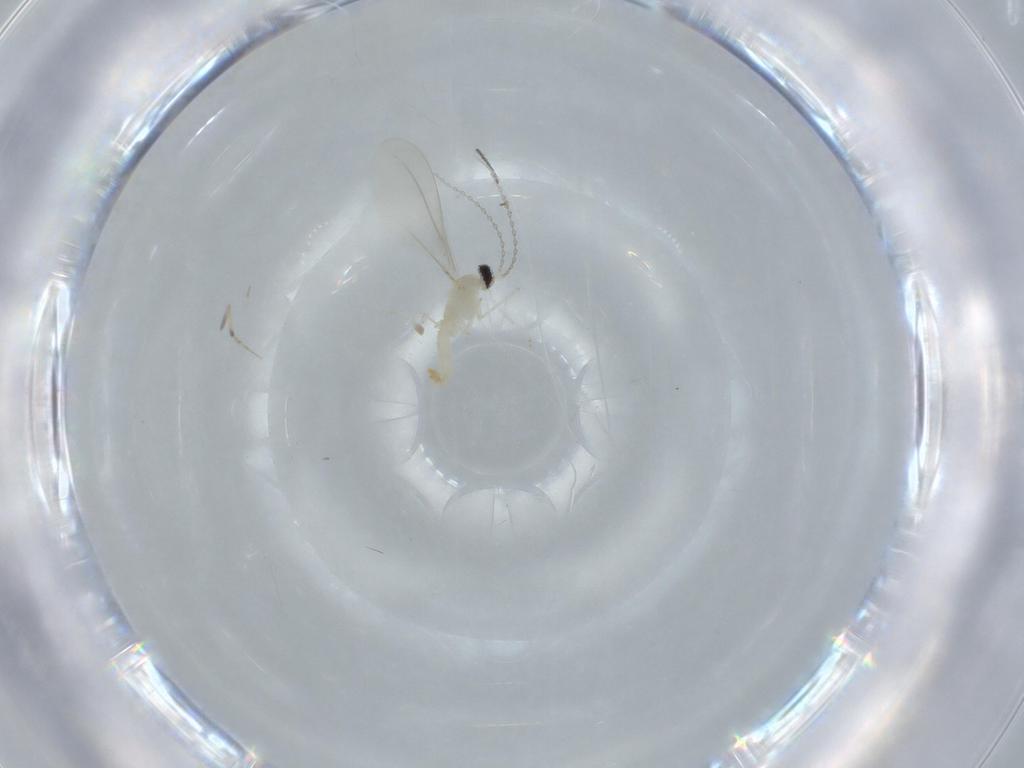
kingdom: Animalia
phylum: Arthropoda
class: Insecta
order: Diptera
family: Cecidomyiidae
